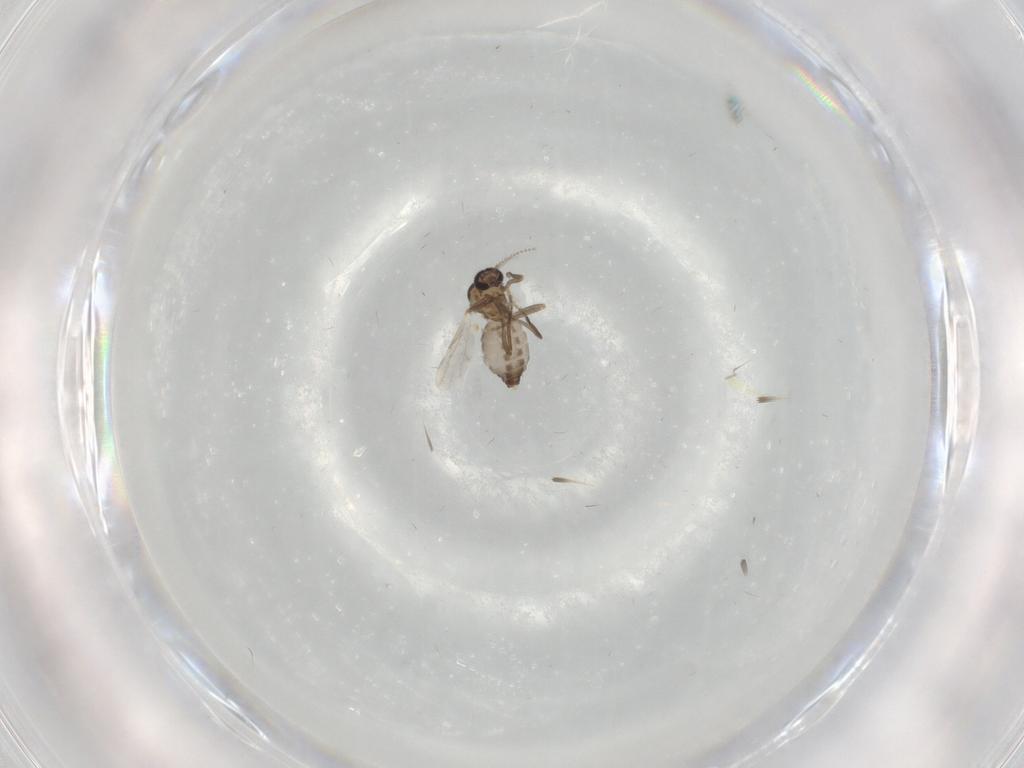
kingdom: Animalia
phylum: Arthropoda
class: Insecta
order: Diptera
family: Ceratopogonidae
